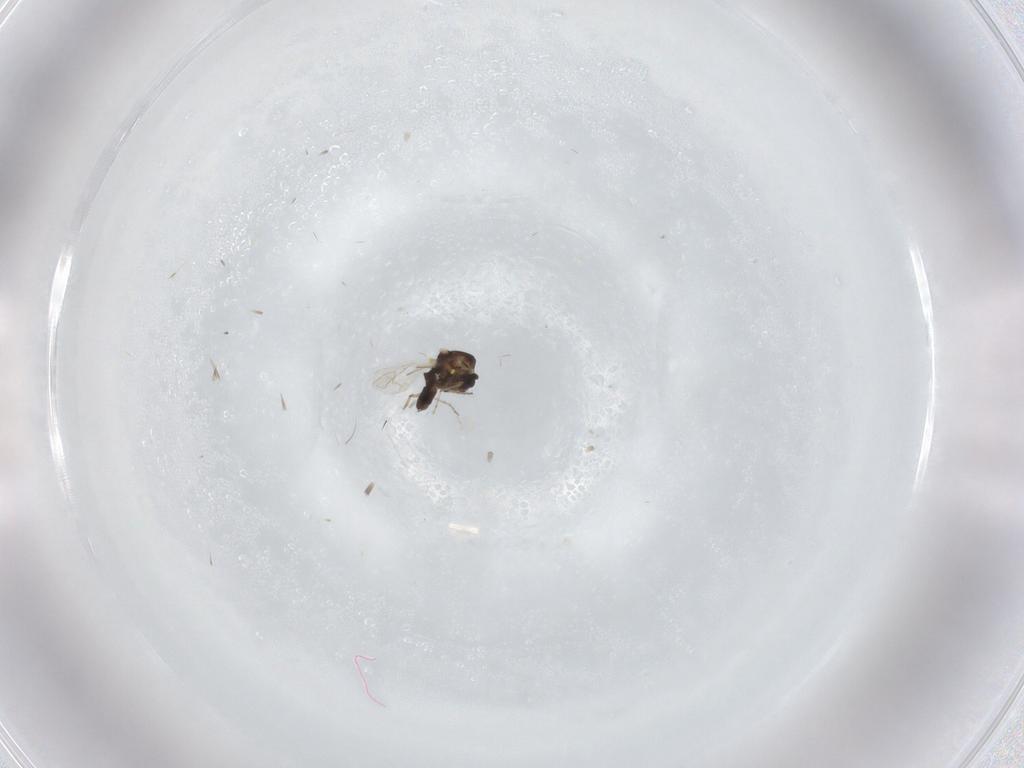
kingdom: Animalia
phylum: Arthropoda
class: Insecta
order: Diptera
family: Ceratopogonidae
